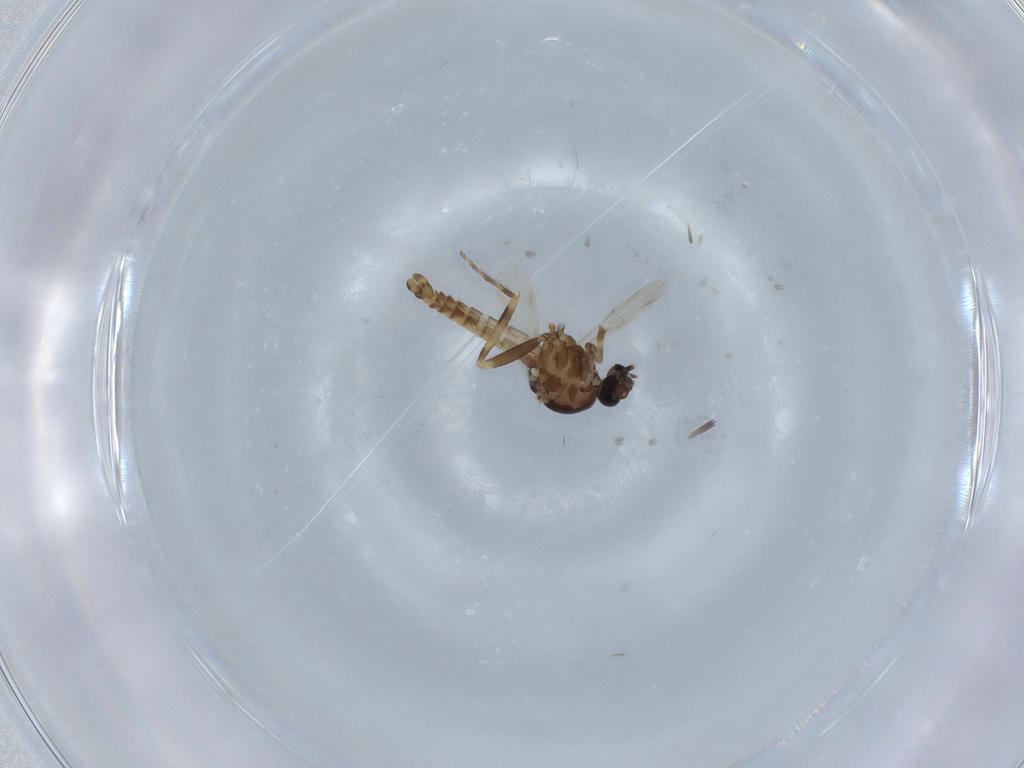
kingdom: Animalia
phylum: Arthropoda
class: Insecta
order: Diptera
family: Ceratopogonidae
